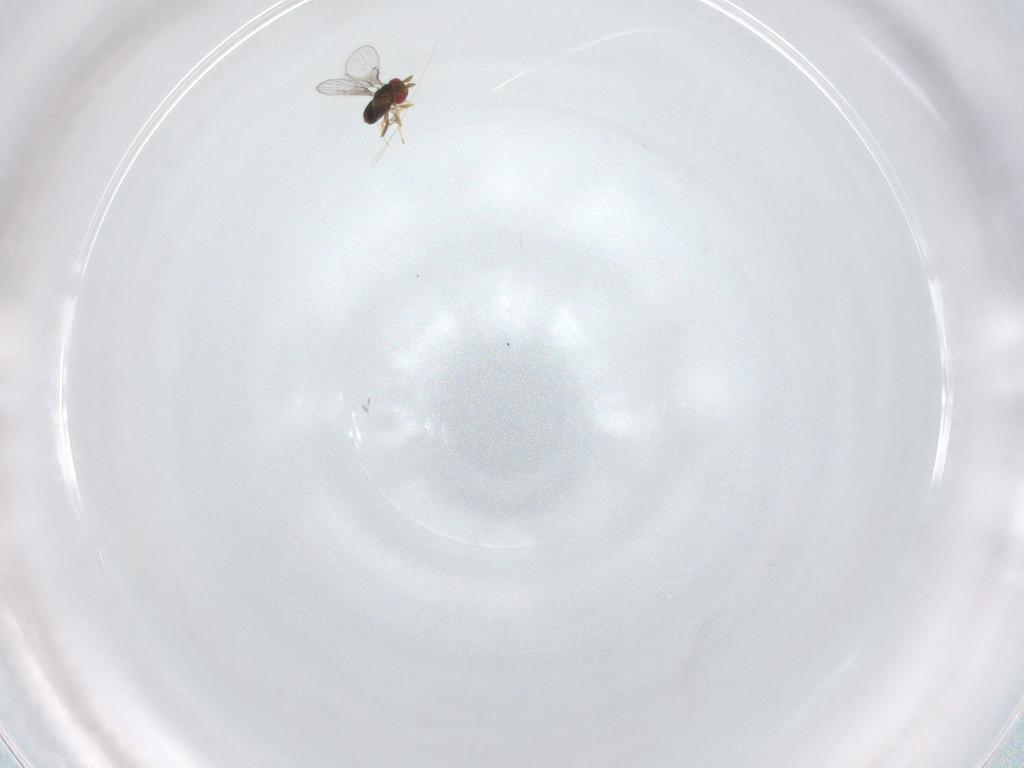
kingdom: Animalia
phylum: Arthropoda
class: Insecta
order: Hymenoptera
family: Trichogrammatidae
